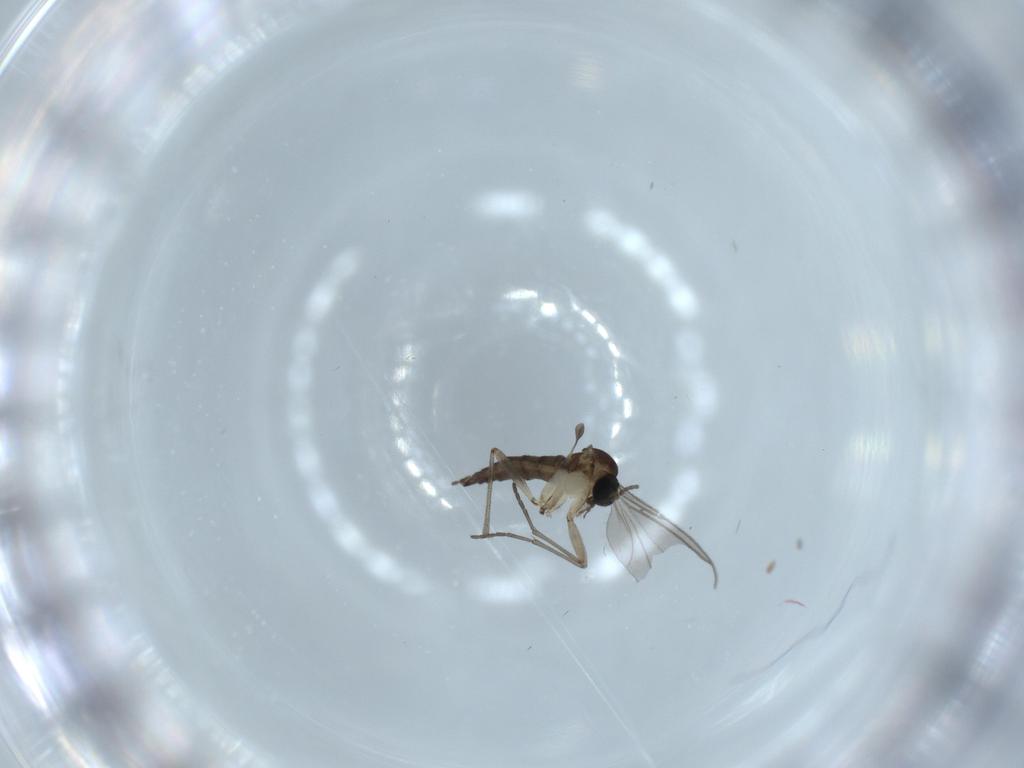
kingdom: Animalia
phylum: Arthropoda
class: Insecta
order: Diptera
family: Sciaridae
